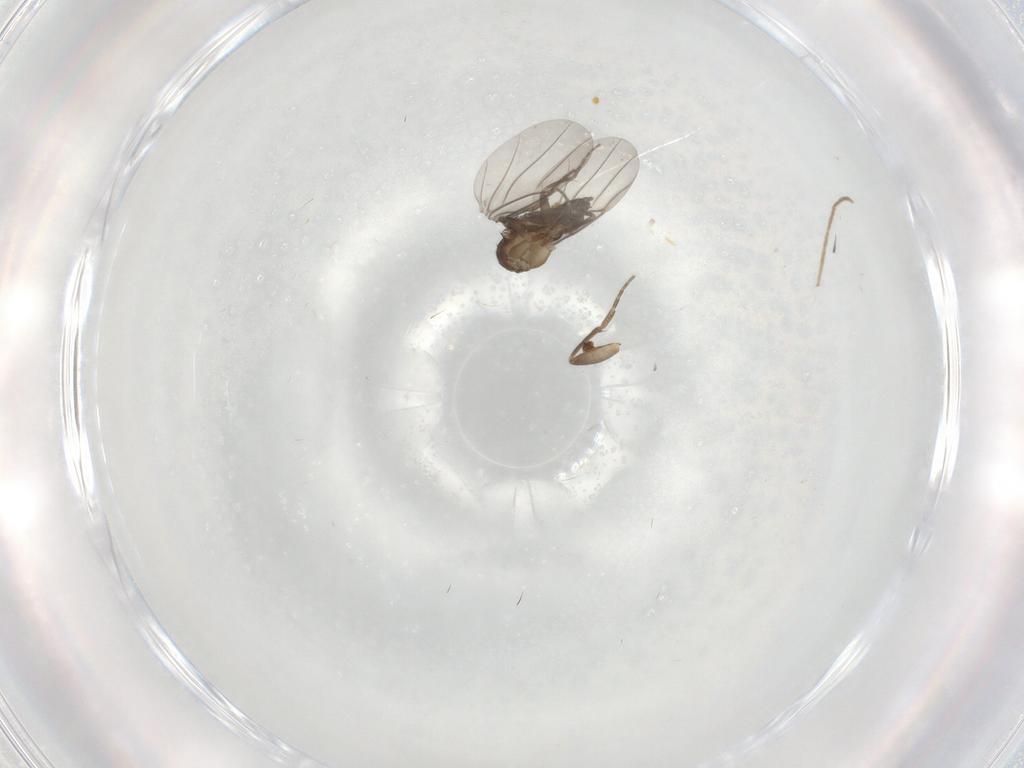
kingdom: Animalia
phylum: Arthropoda
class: Insecta
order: Diptera
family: Phoridae
